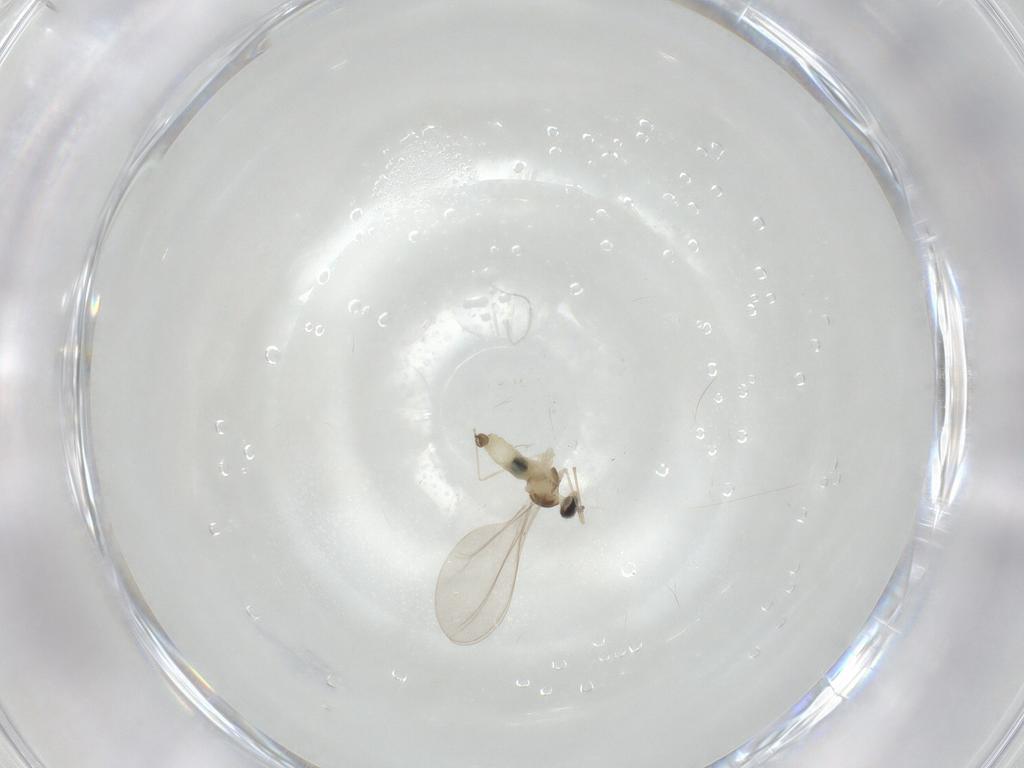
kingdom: Animalia
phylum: Arthropoda
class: Insecta
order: Diptera
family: Cecidomyiidae
